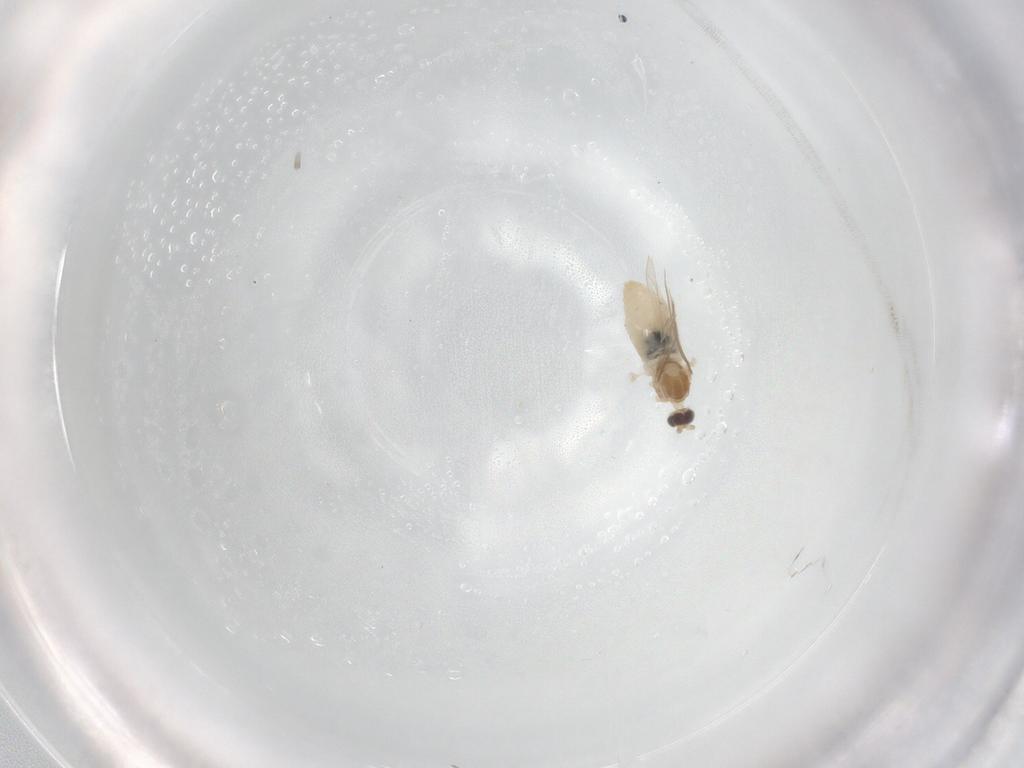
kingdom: Animalia
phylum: Arthropoda
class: Insecta
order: Diptera
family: Cecidomyiidae
